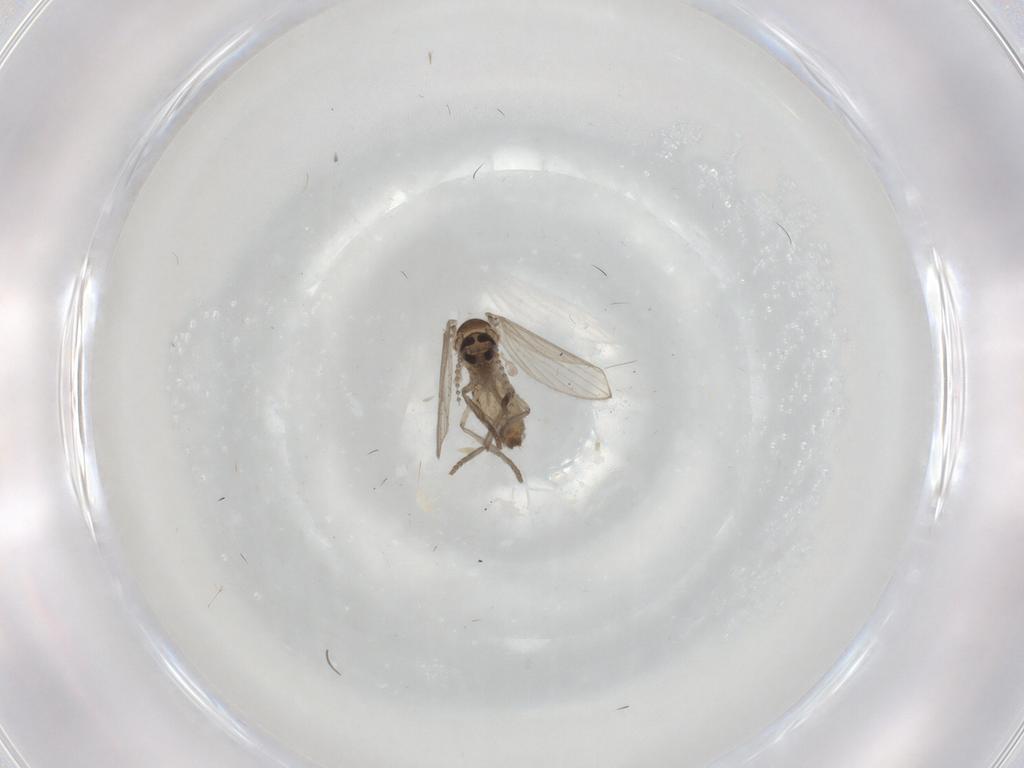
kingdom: Animalia
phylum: Arthropoda
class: Insecta
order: Diptera
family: Psychodidae
